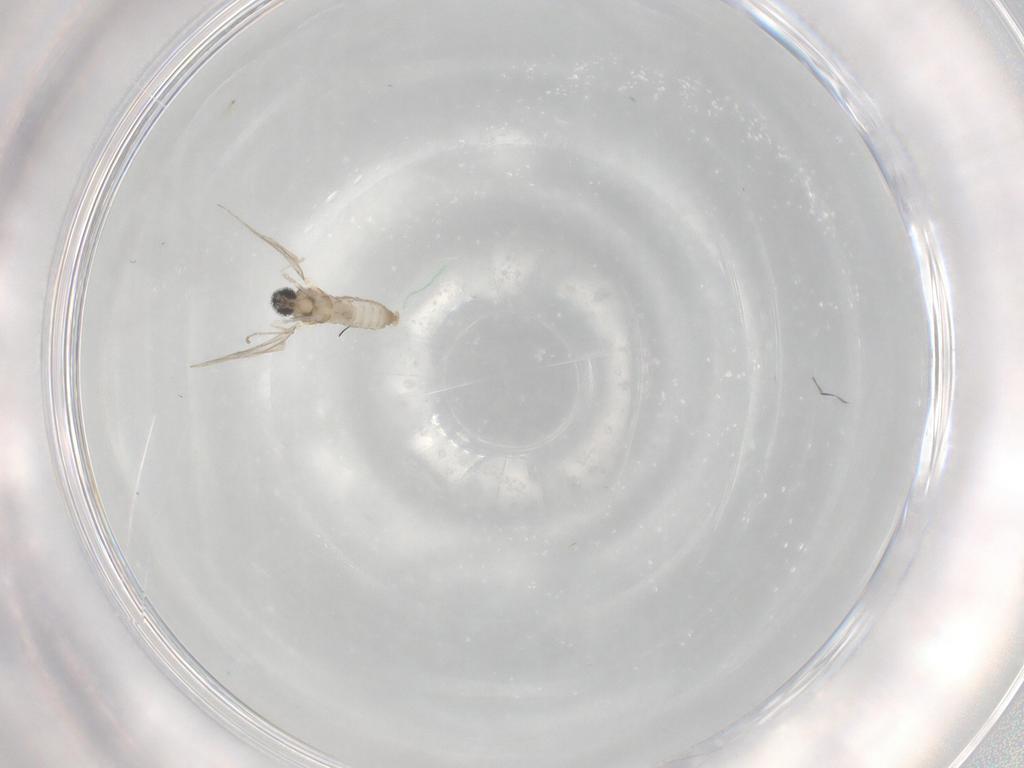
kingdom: Animalia
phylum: Arthropoda
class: Insecta
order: Diptera
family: Cecidomyiidae
